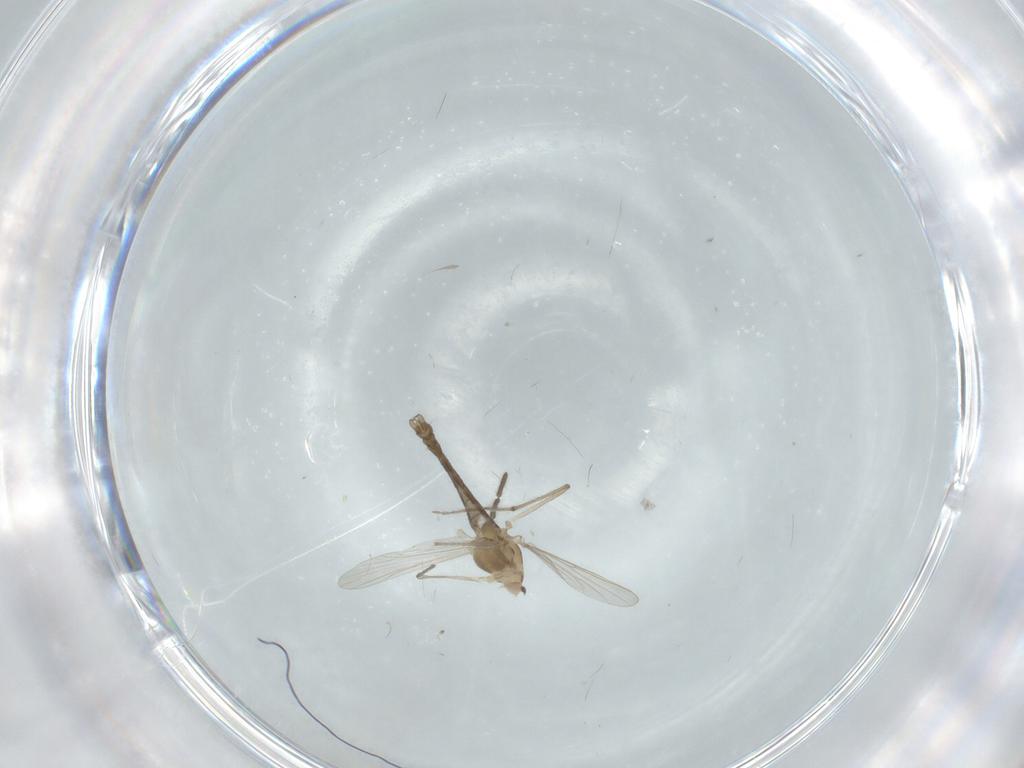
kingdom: Animalia
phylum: Arthropoda
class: Insecta
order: Diptera
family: Chironomidae
